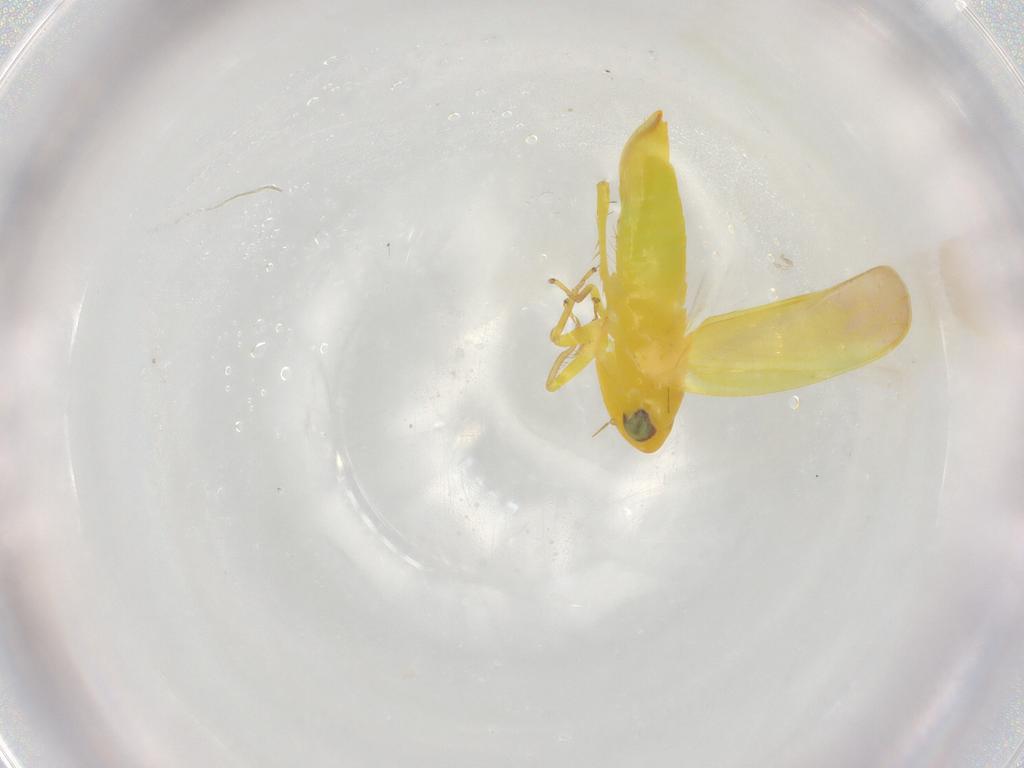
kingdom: Animalia
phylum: Arthropoda
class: Insecta
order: Hemiptera
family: Cicadellidae
